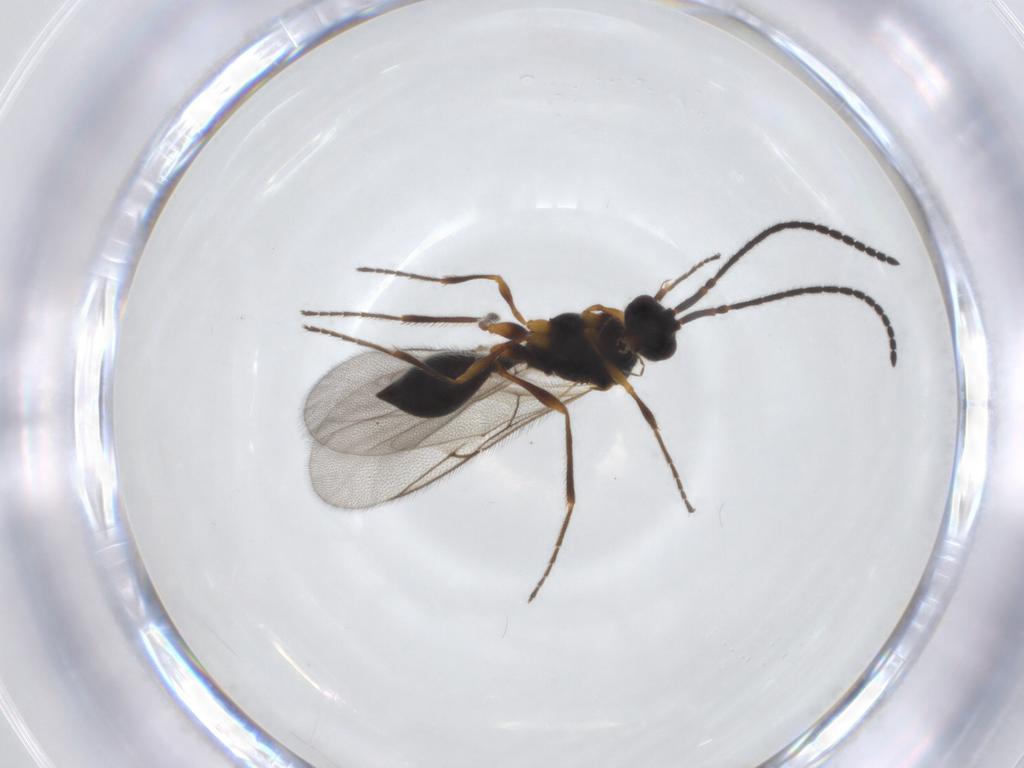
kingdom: Animalia
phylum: Arthropoda
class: Insecta
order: Hymenoptera
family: Diapriidae
